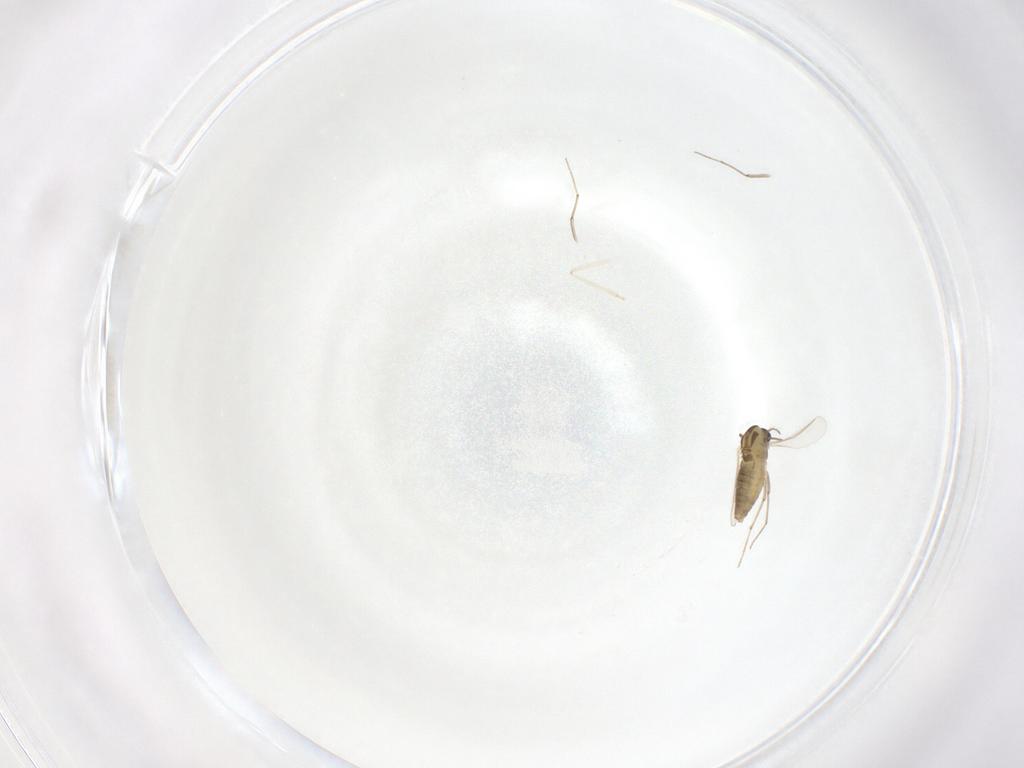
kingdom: Animalia
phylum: Arthropoda
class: Insecta
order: Diptera
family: Chironomidae
